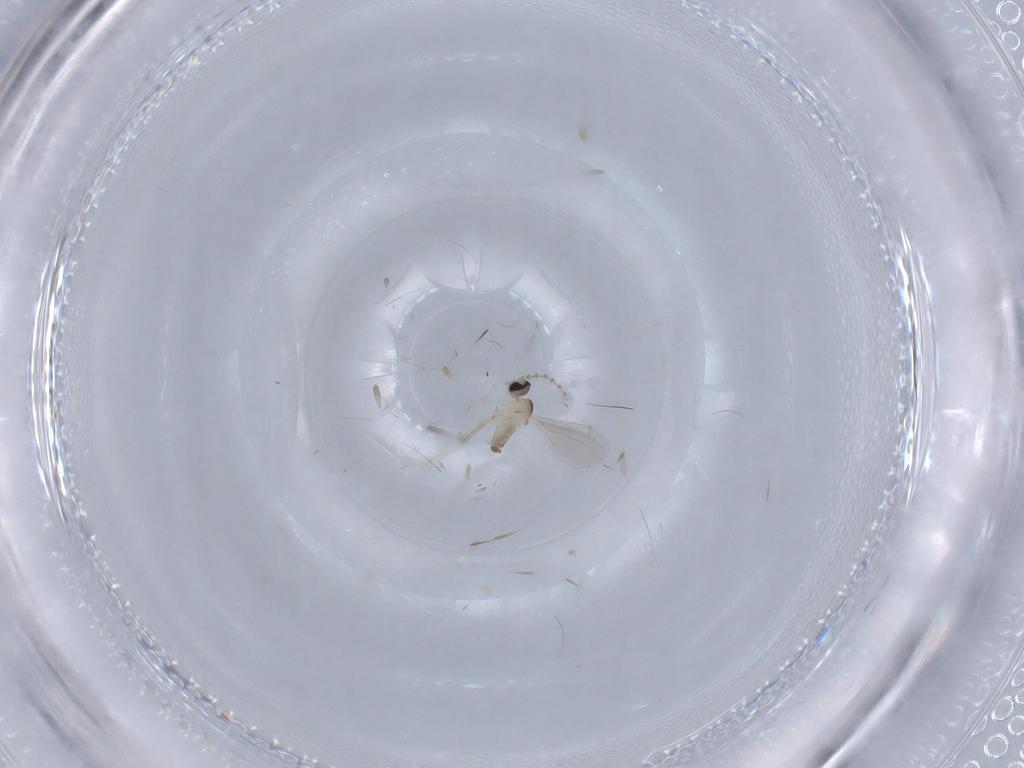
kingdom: Animalia
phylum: Arthropoda
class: Insecta
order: Diptera
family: Cecidomyiidae
